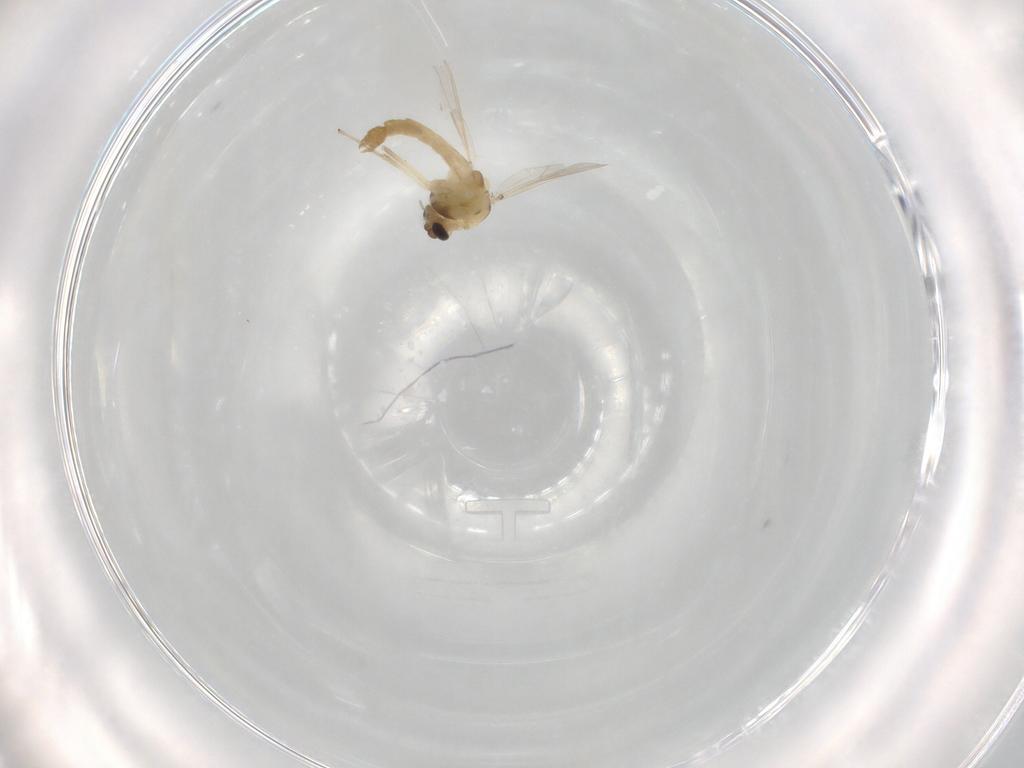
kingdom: Animalia
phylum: Arthropoda
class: Insecta
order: Diptera
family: Chironomidae
